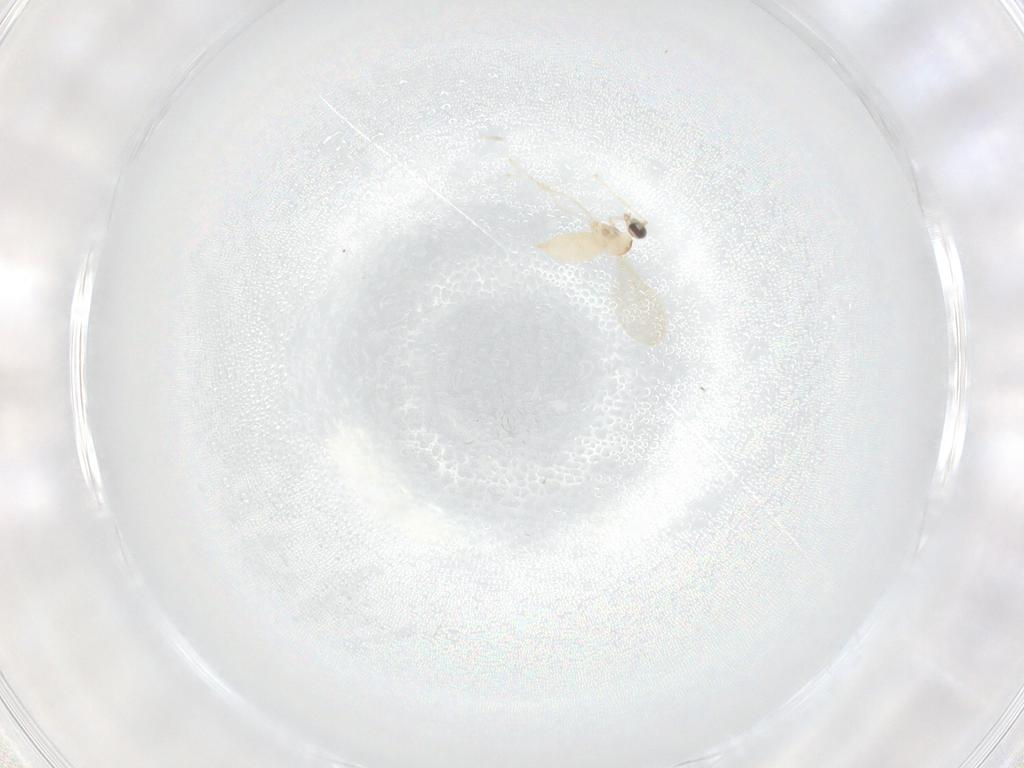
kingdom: Animalia
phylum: Arthropoda
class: Insecta
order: Diptera
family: Cecidomyiidae
